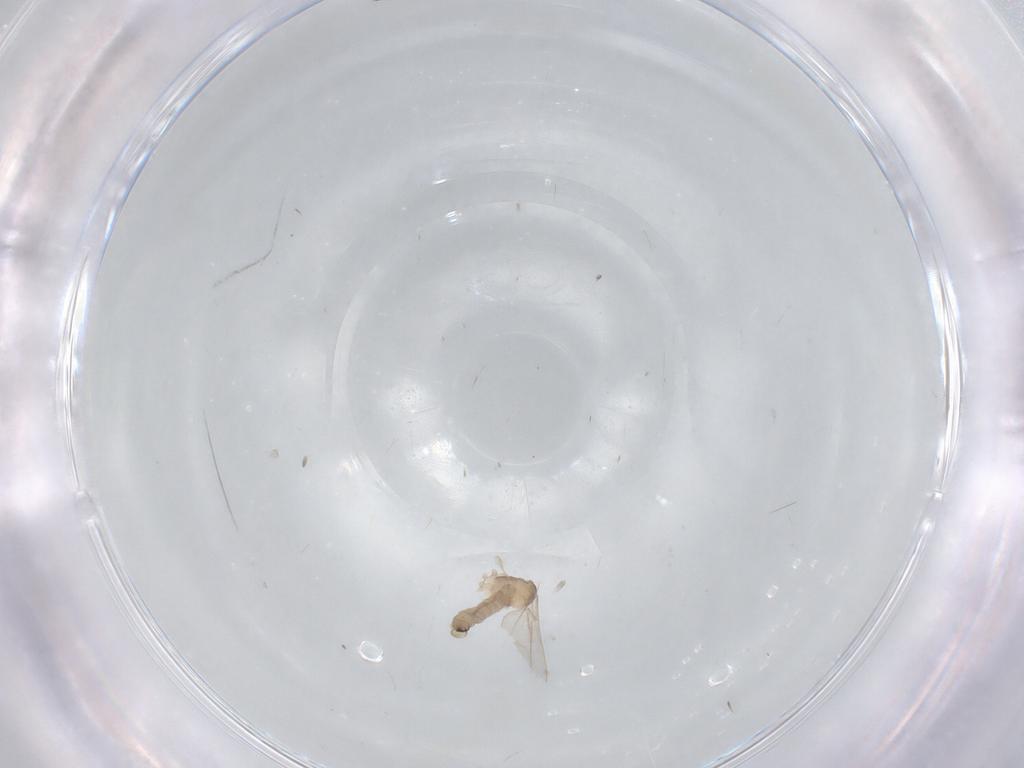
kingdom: Animalia
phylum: Arthropoda
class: Insecta
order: Diptera
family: Cecidomyiidae
